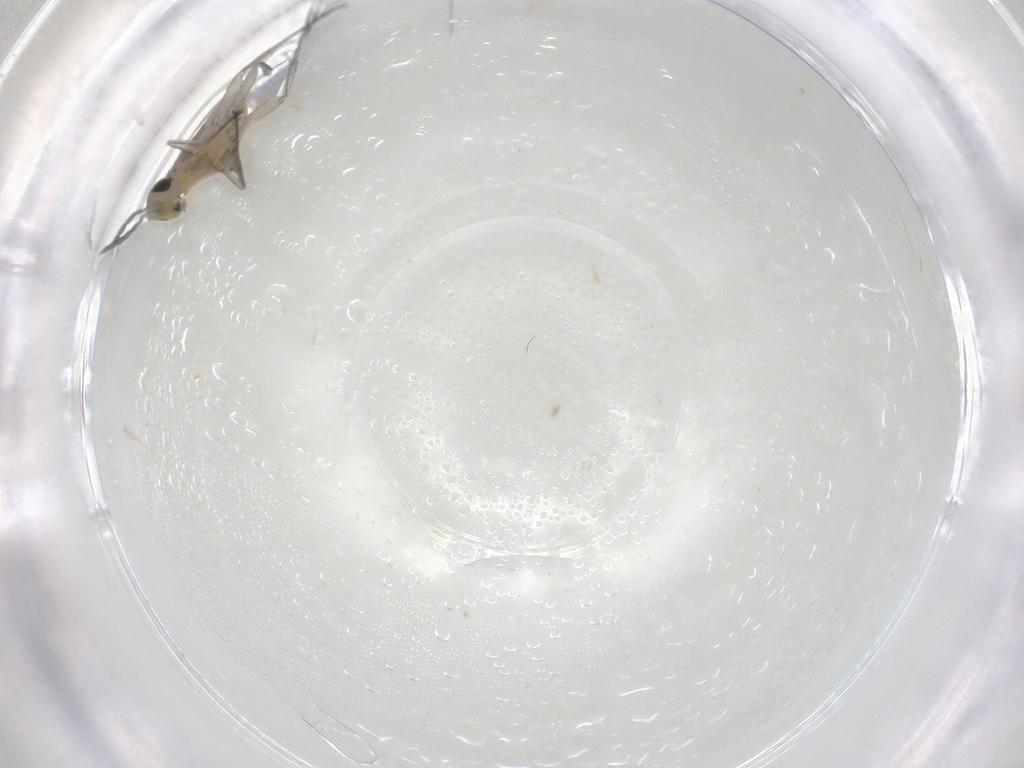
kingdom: Animalia
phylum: Arthropoda
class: Insecta
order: Hymenoptera
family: Eulophidae
